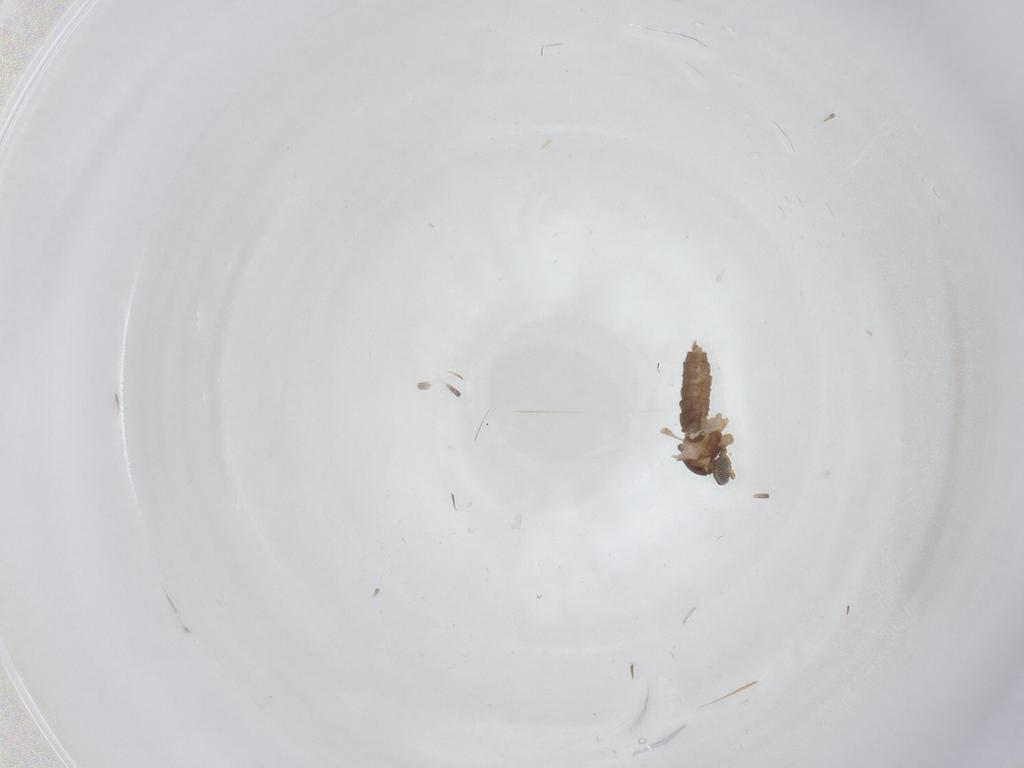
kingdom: Animalia
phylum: Arthropoda
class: Insecta
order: Diptera
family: Cecidomyiidae
